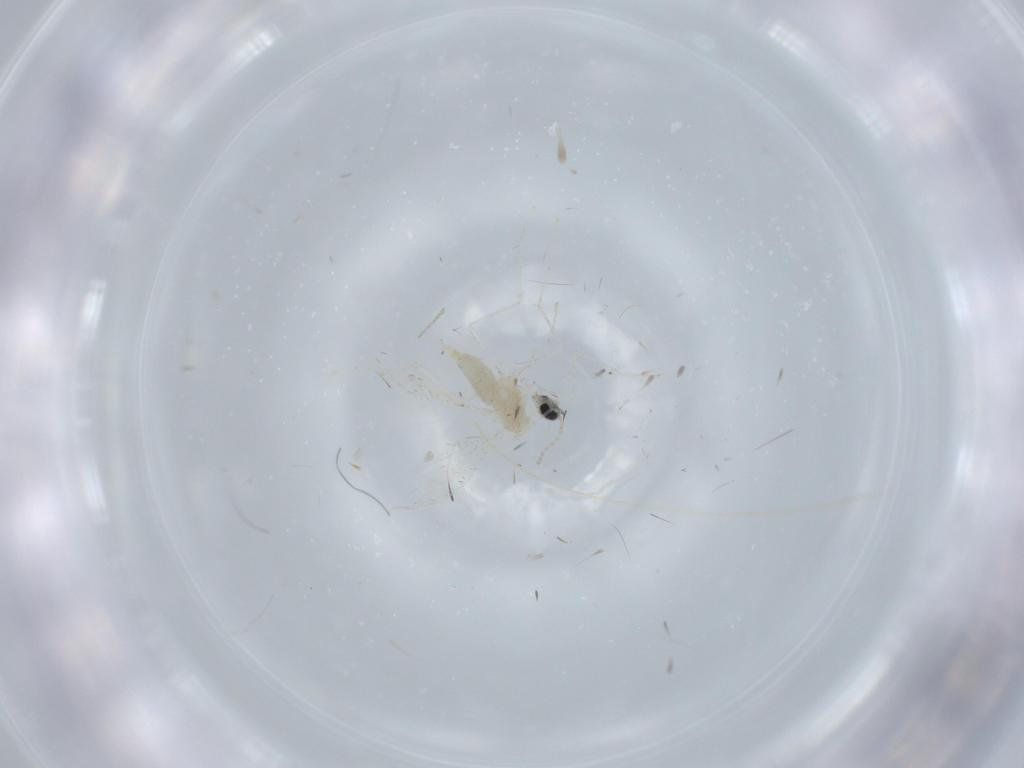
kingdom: Animalia
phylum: Arthropoda
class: Insecta
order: Diptera
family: Cecidomyiidae
